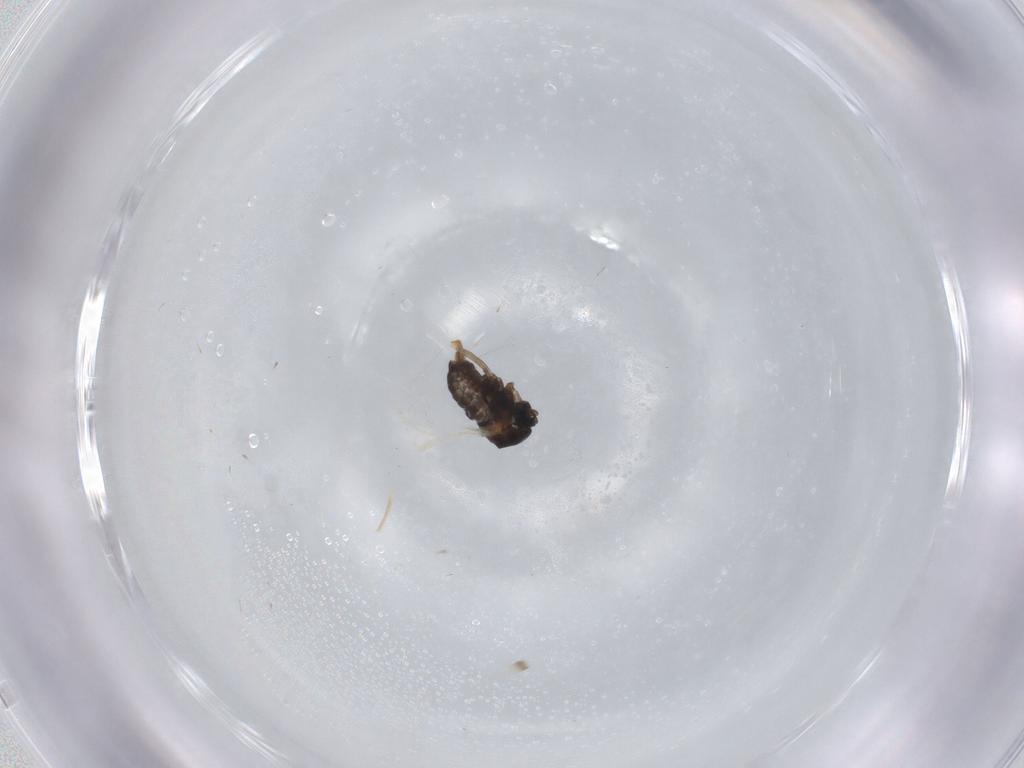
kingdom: Animalia
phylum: Arthropoda
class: Insecta
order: Diptera
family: Cecidomyiidae
